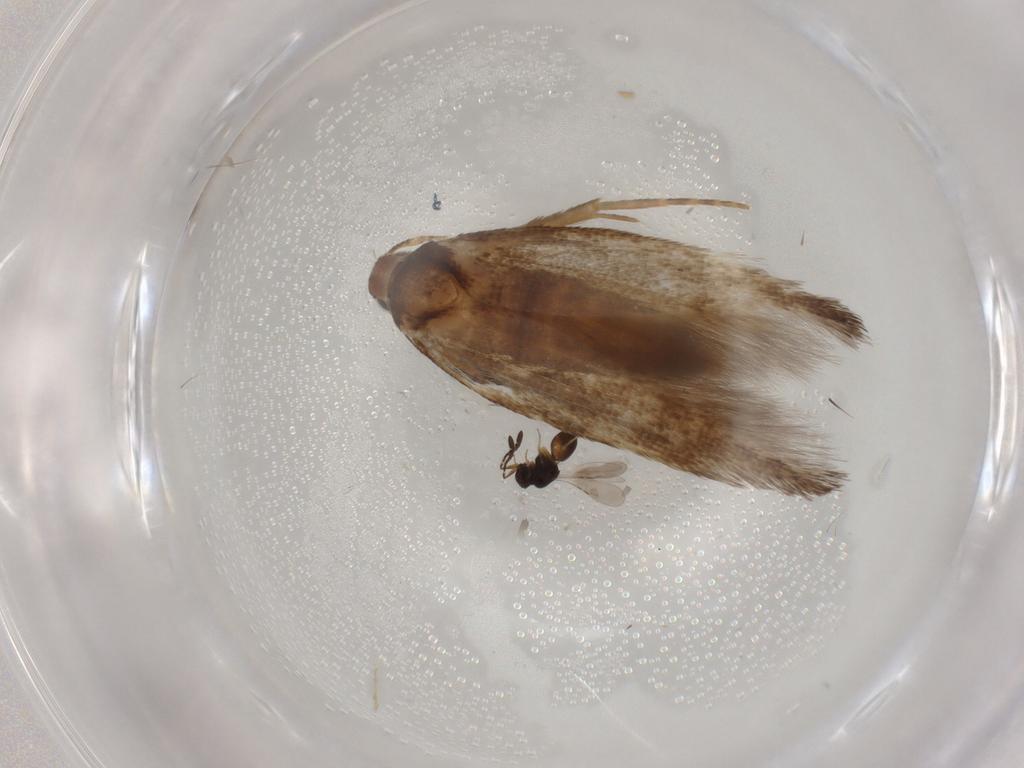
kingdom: Animalia
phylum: Arthropoda
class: Insecta
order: Lepidoptera
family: Cosmopterigidae
